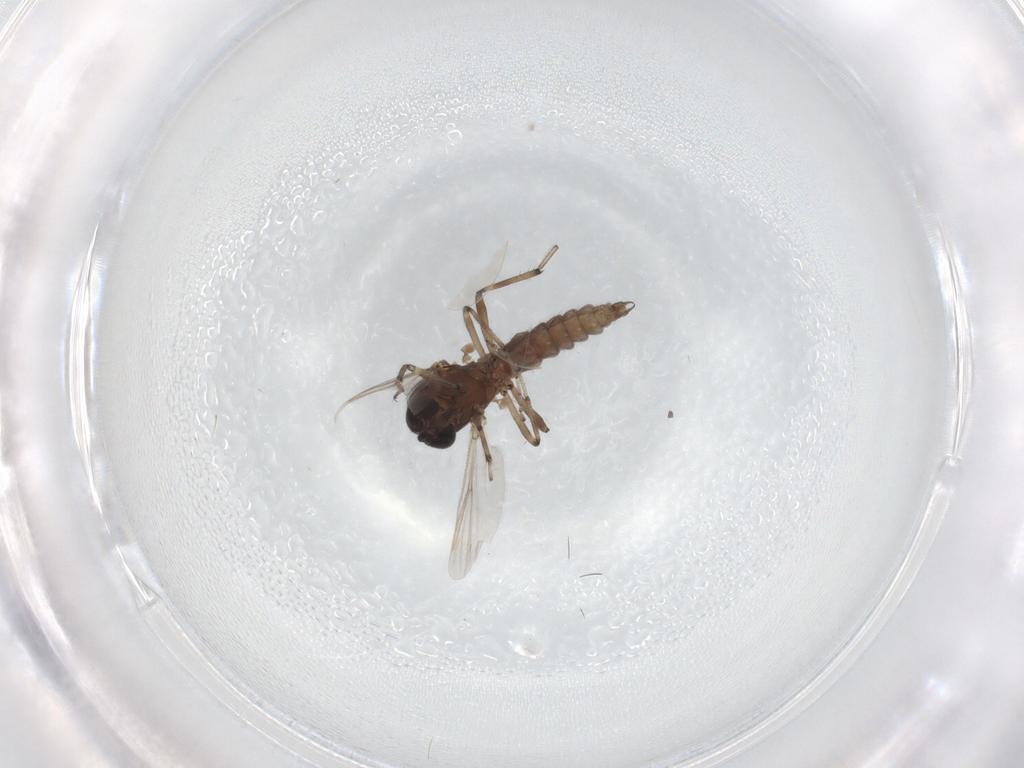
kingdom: Animalia
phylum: Arthropoda
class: Insecta
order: Diptera
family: Ceratopogonidae
